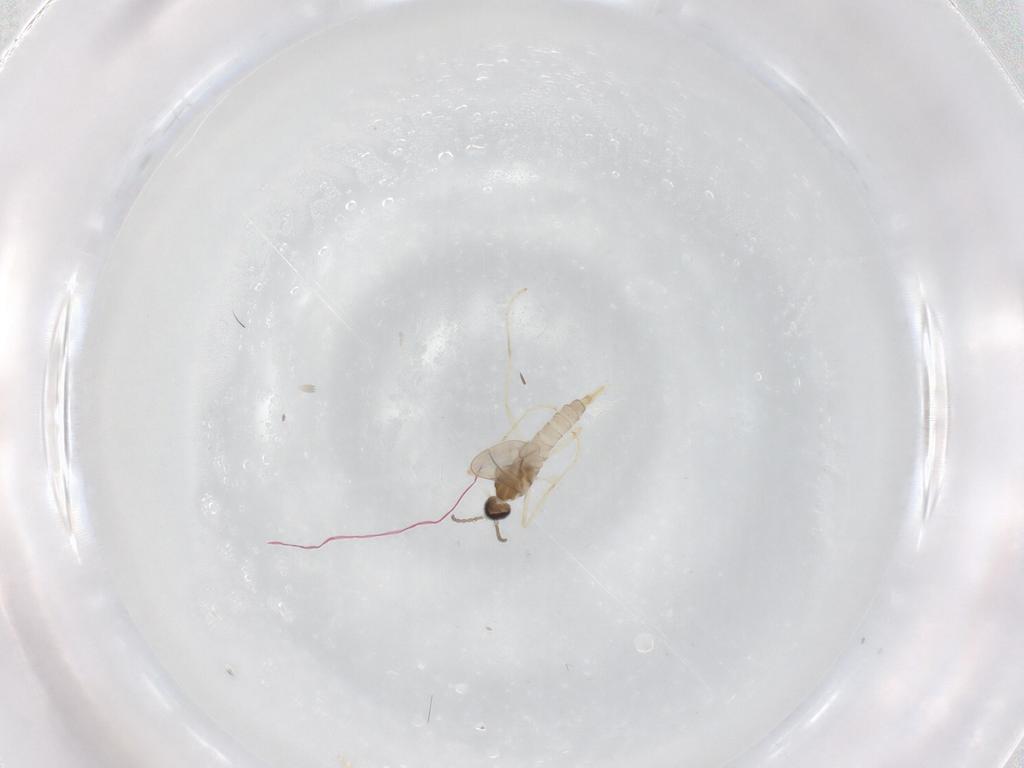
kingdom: Animalia
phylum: Arthropoda
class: Insecta
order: Diptera
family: Cecidomyiidae
